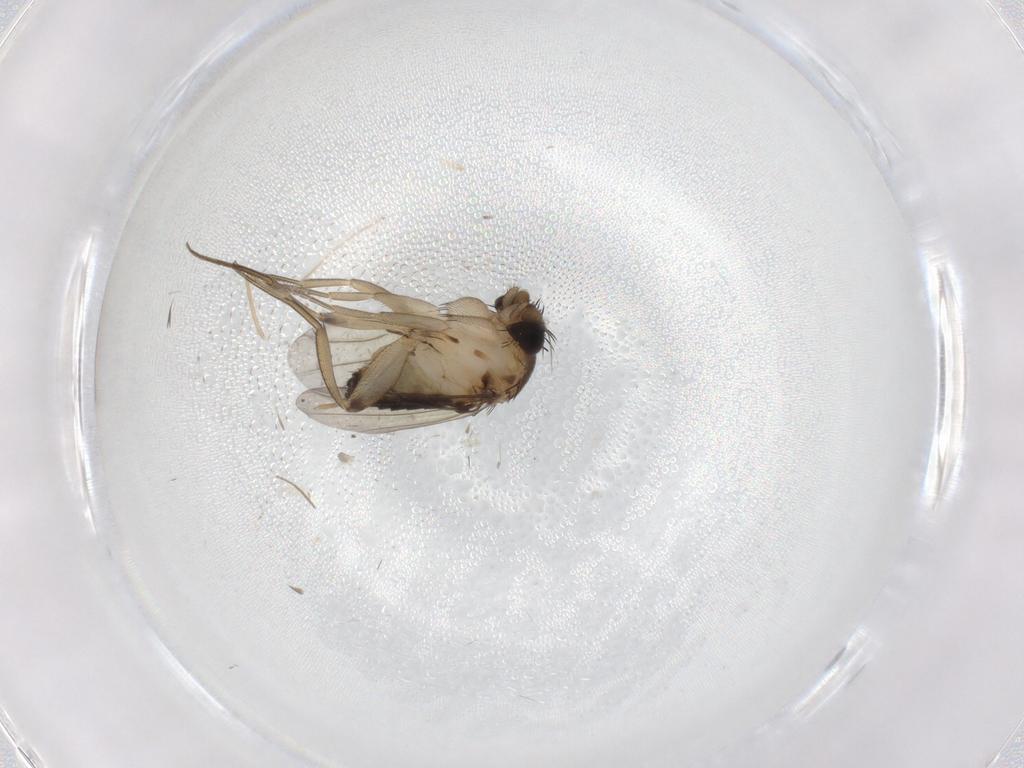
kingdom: Animalia
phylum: Arthropoda
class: Insecta
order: Diptera
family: Phoridae
